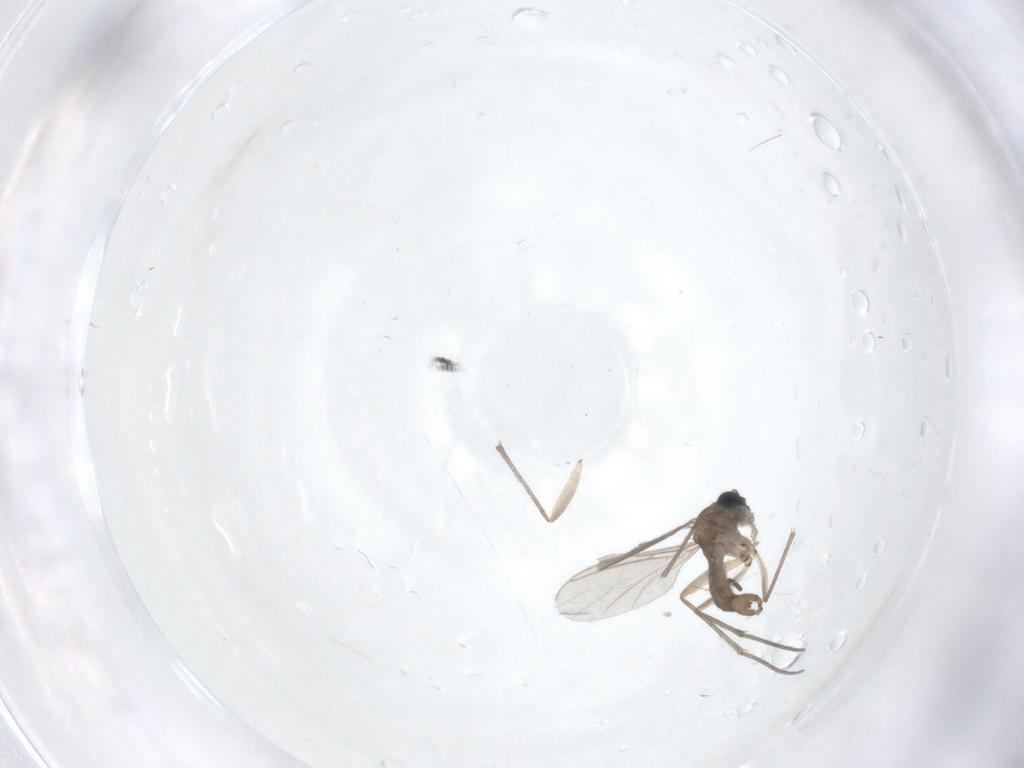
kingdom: Animalia
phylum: Arthropoda
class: Insecta
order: Diptera
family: Sciaridae
